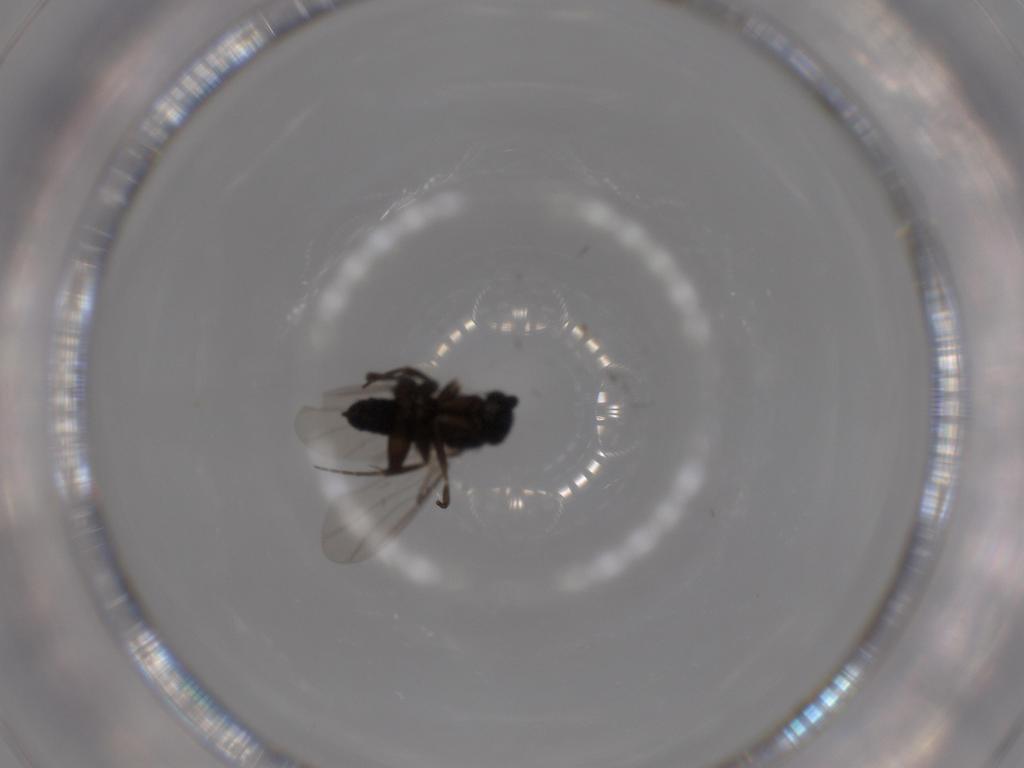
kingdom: Animalia
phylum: Arthropoda
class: Insecta
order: Diptera
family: Phoridae
